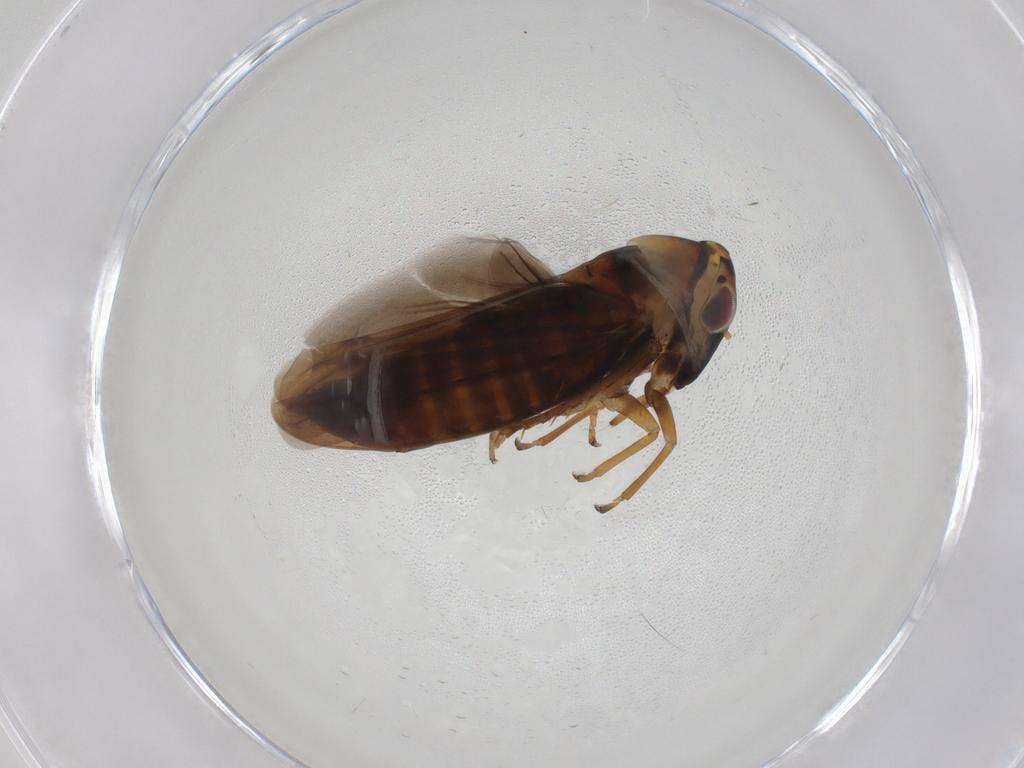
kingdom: Animalia
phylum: Arthropoda
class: Insecta
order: Hemiptera
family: Cicadellidae
